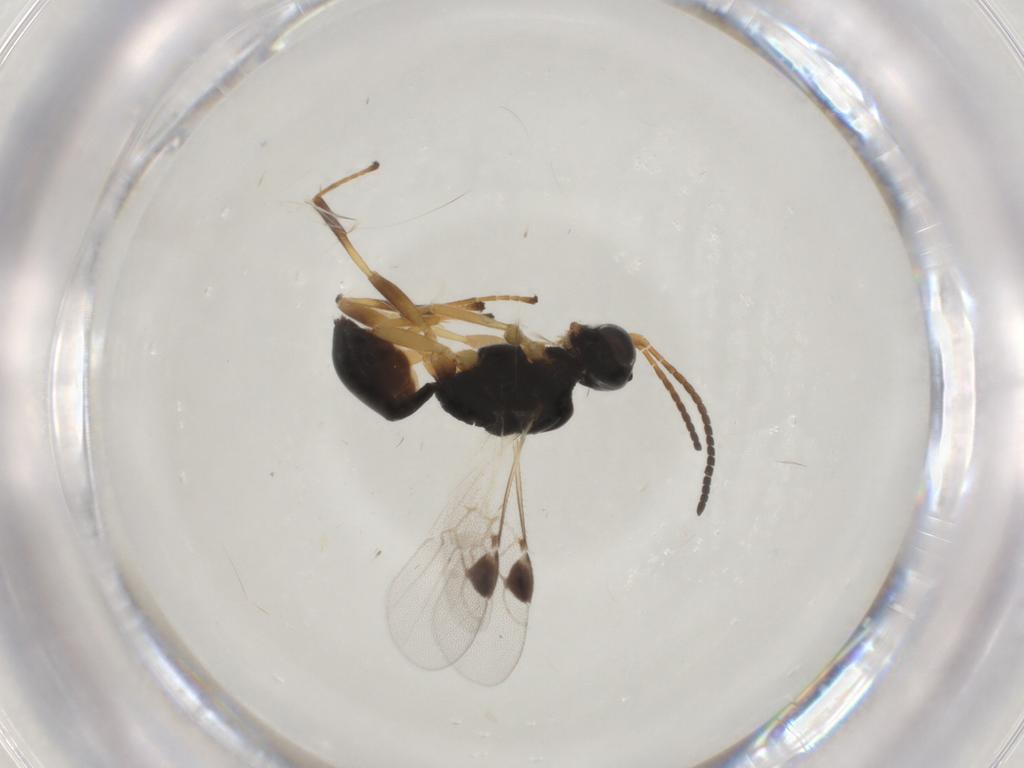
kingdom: Animalia
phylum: Arthropoda
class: Insecta
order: Hymenoptera
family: Braconidae
